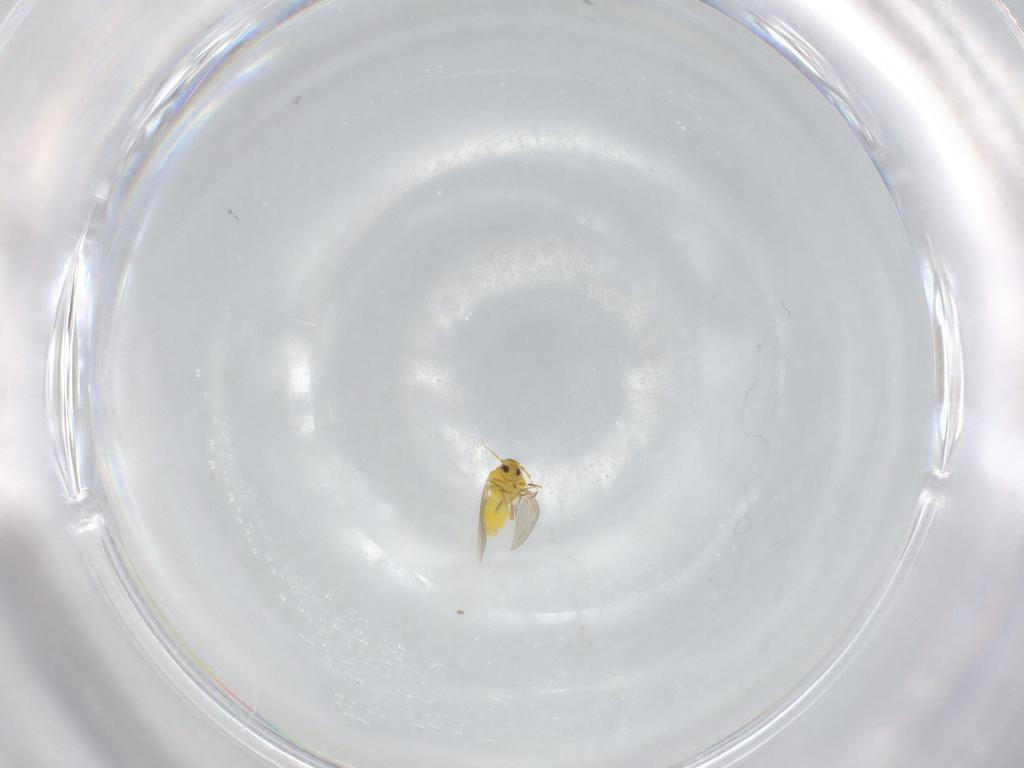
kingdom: Animalia
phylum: Arthropoda
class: Insecta
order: Hemiptera
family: Aleyrodidae
